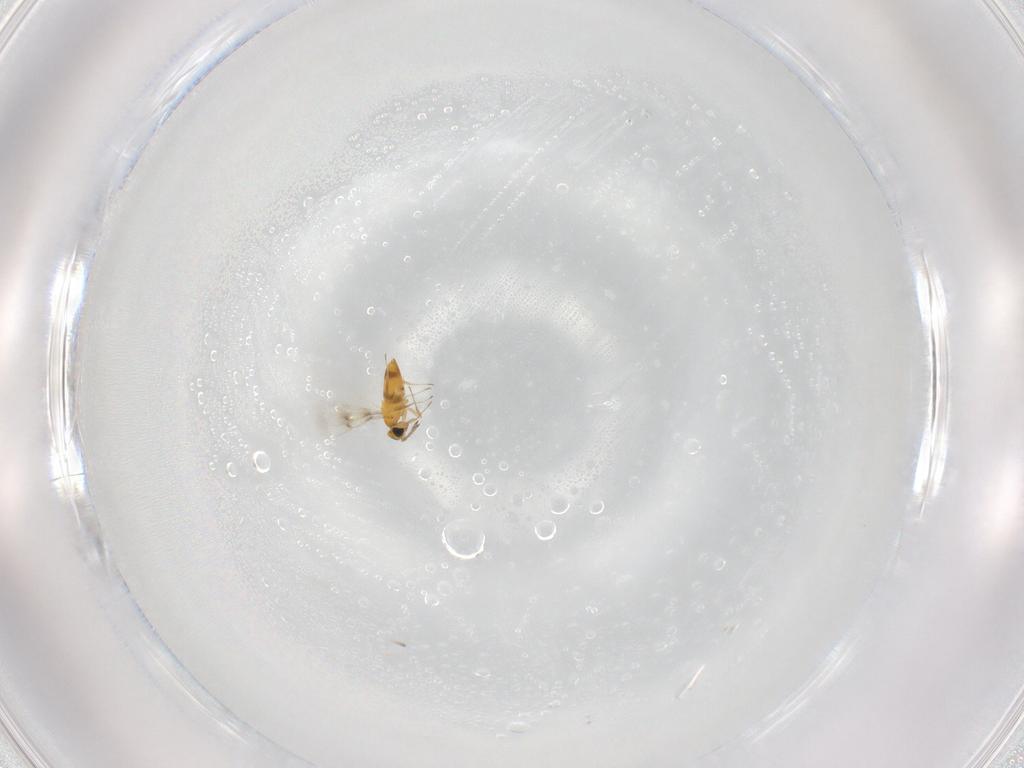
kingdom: Animalia
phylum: Arthropoda
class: Insecta
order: Hymenoptera
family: Aphelinidae
